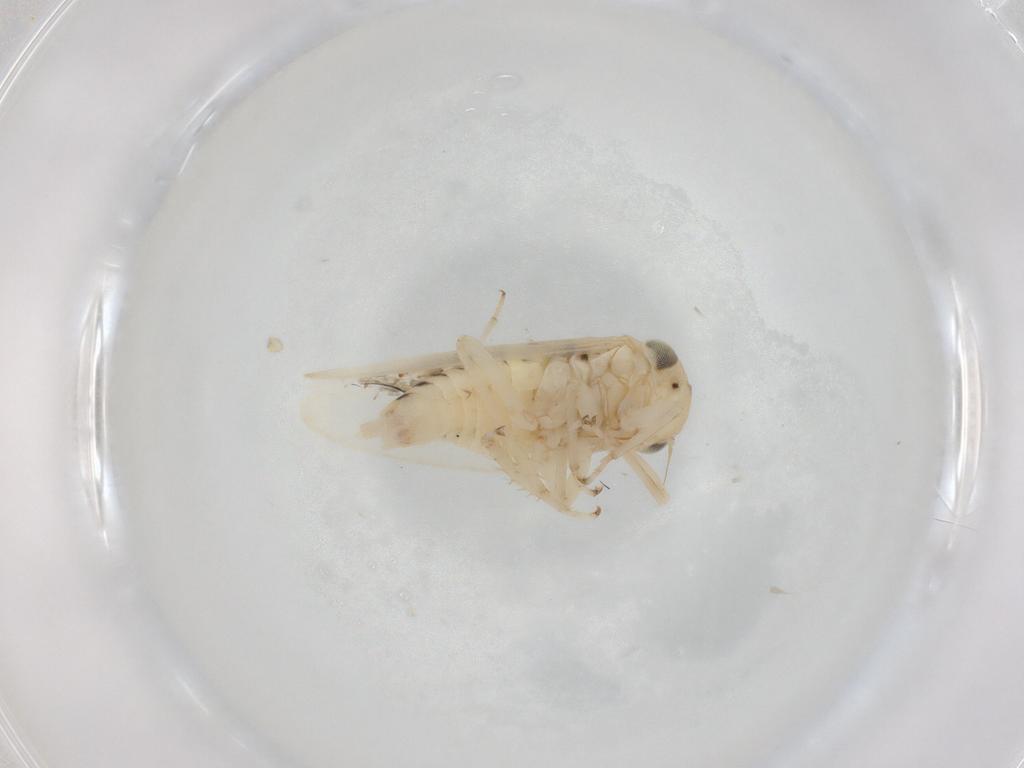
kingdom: Animalia
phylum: Arthropoda
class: Insecta
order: Hemiptera
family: Cicadellidae
